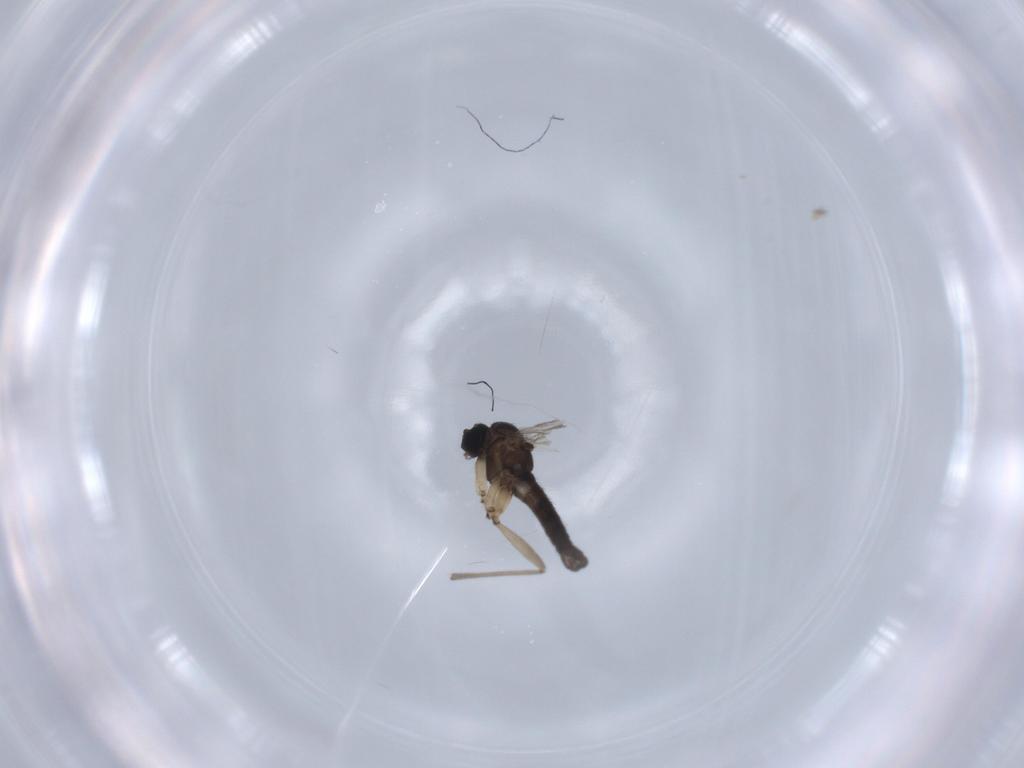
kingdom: Animalia
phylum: Arthropoda
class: Insecta
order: Diptera
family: Sciaridae
